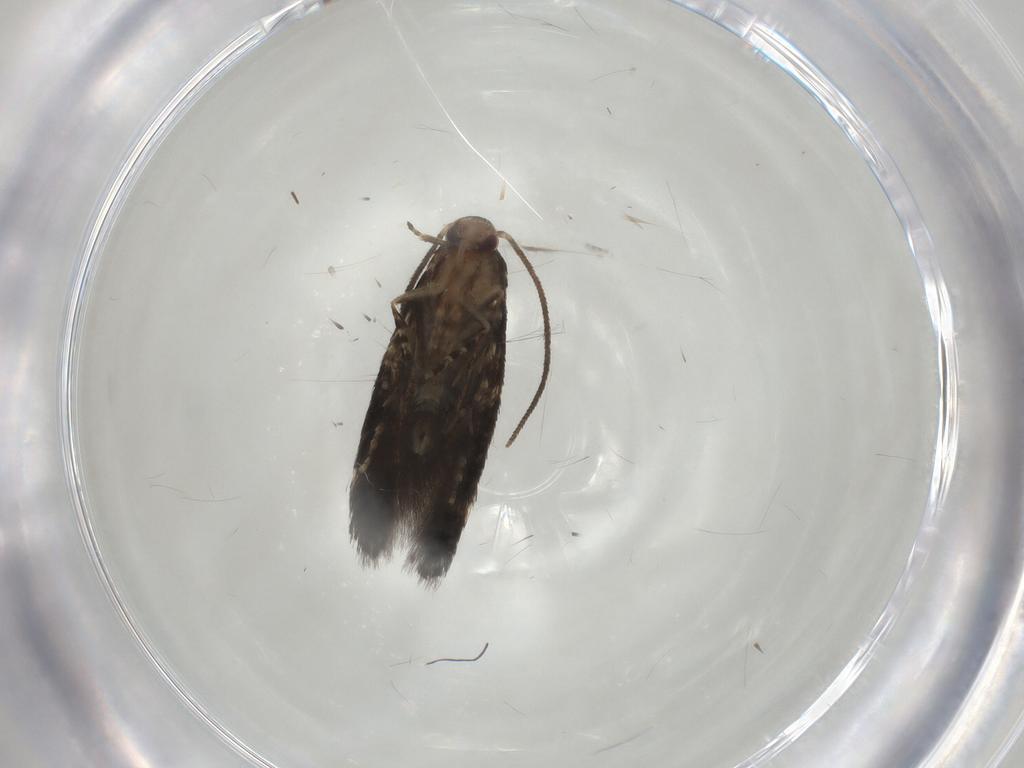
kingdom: Animalia
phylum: Arthropoda
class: Insecta
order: Lepidoptera
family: Elachistidae
